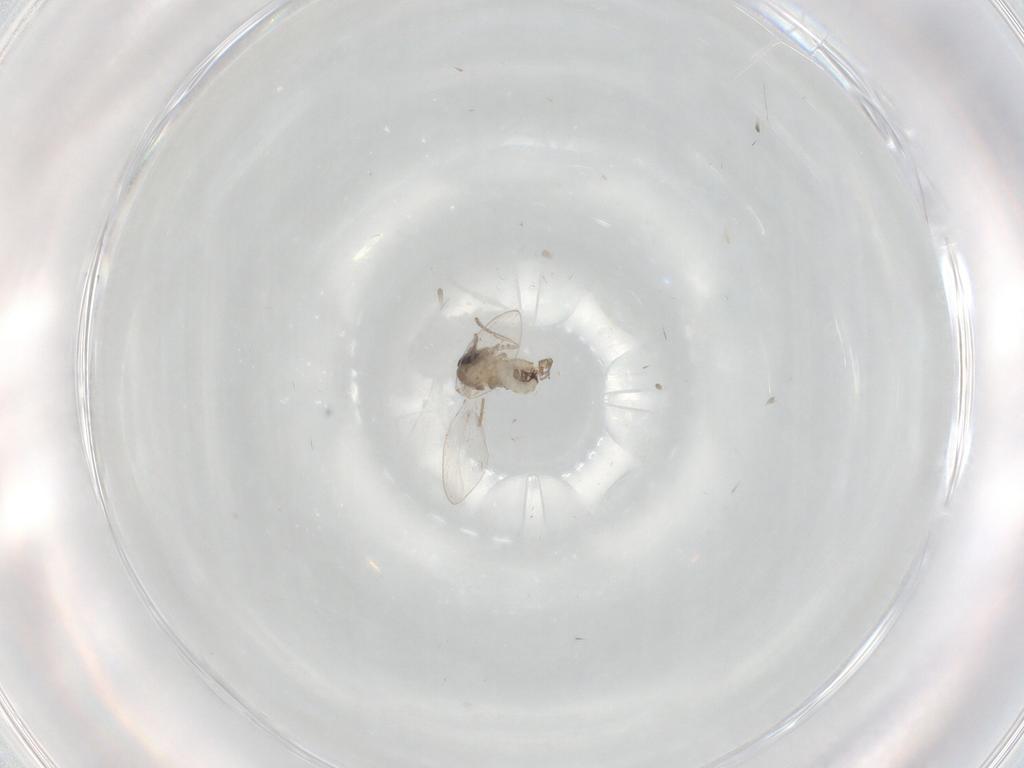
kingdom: Animalia
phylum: Arthropoda
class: Insecta
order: Diptera
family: Psychodidae
